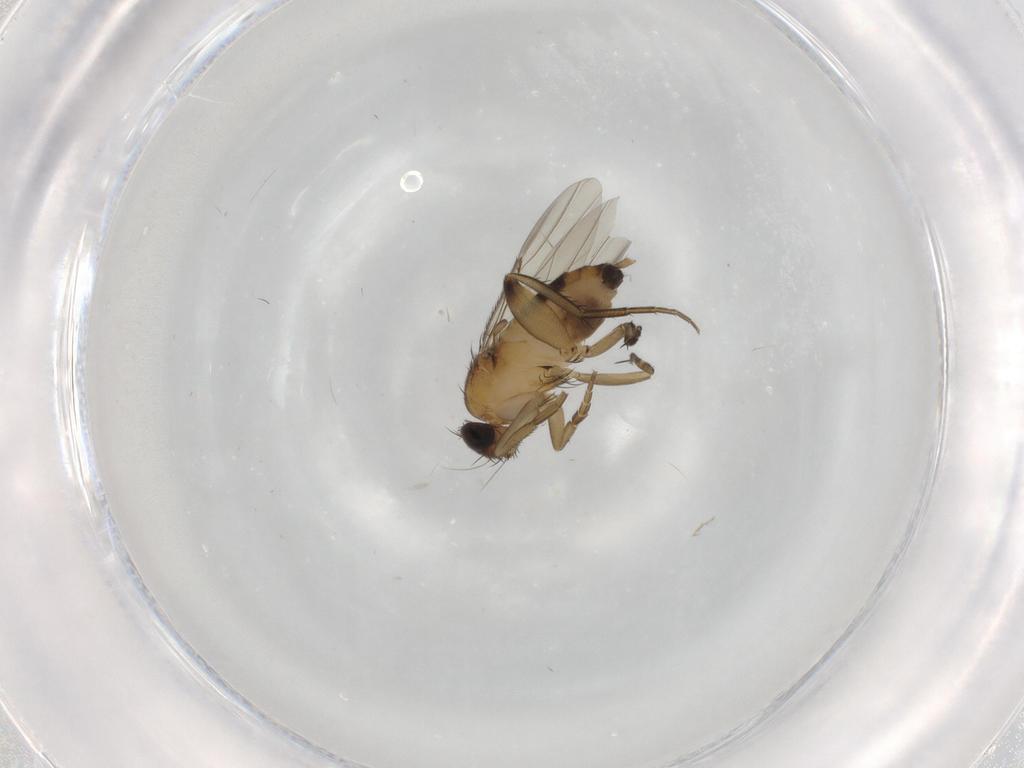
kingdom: Animalia
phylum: Arthropoda
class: Insecta
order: Diptera
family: Phoridae
